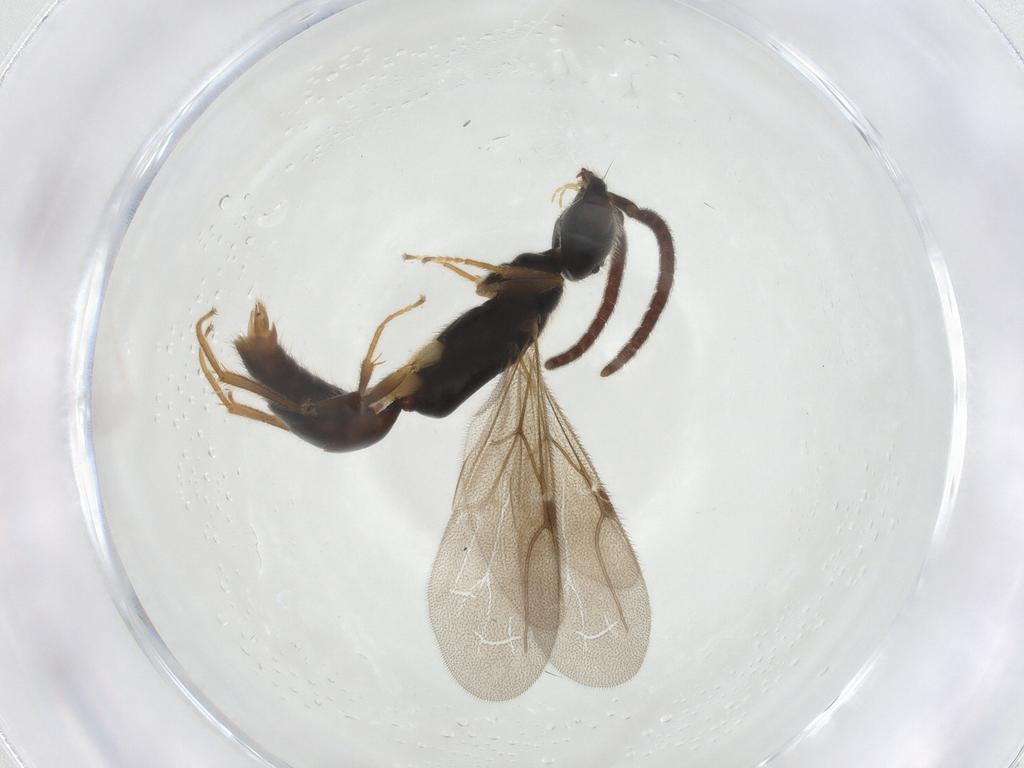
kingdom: Animalia
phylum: Arthropoda
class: Insecta
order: Hymenoptera
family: Bethylidae
